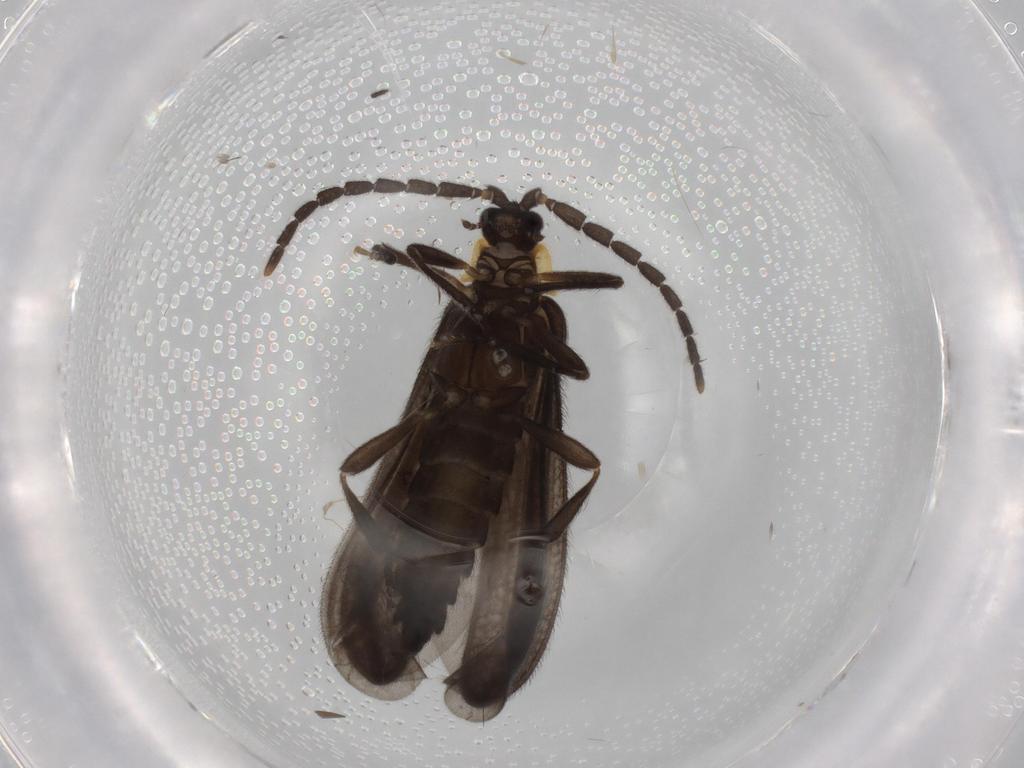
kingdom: Animalia
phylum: Arthropoda
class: Insecta
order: Coleoptera
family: Lycidae
